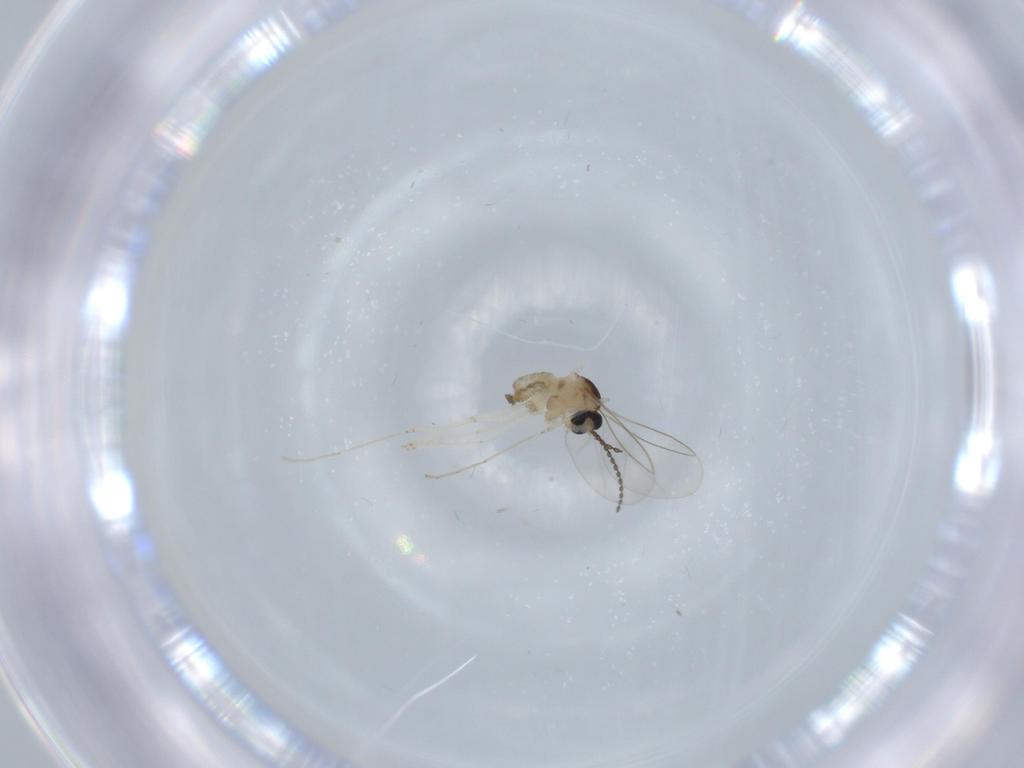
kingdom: Animalia
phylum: Arthropoda
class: Insecta
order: Diptera
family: Cecidomyiidae
